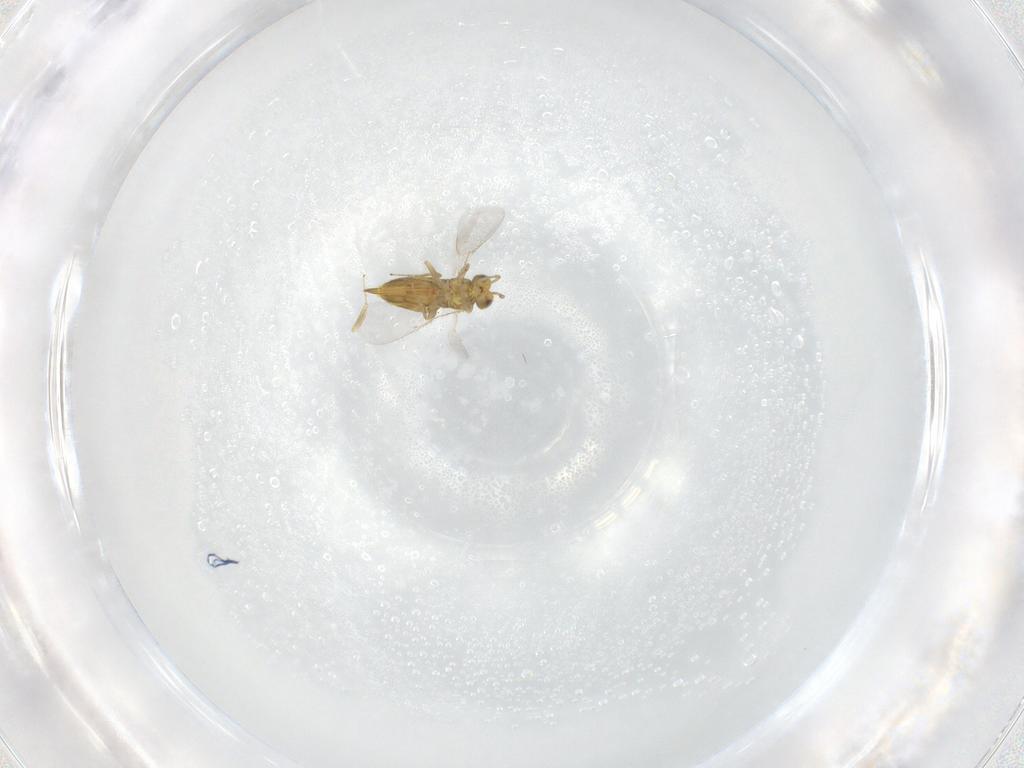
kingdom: Animalia
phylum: Arthropoda
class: Insecta
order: Hymenoptera
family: Aphelinidae
